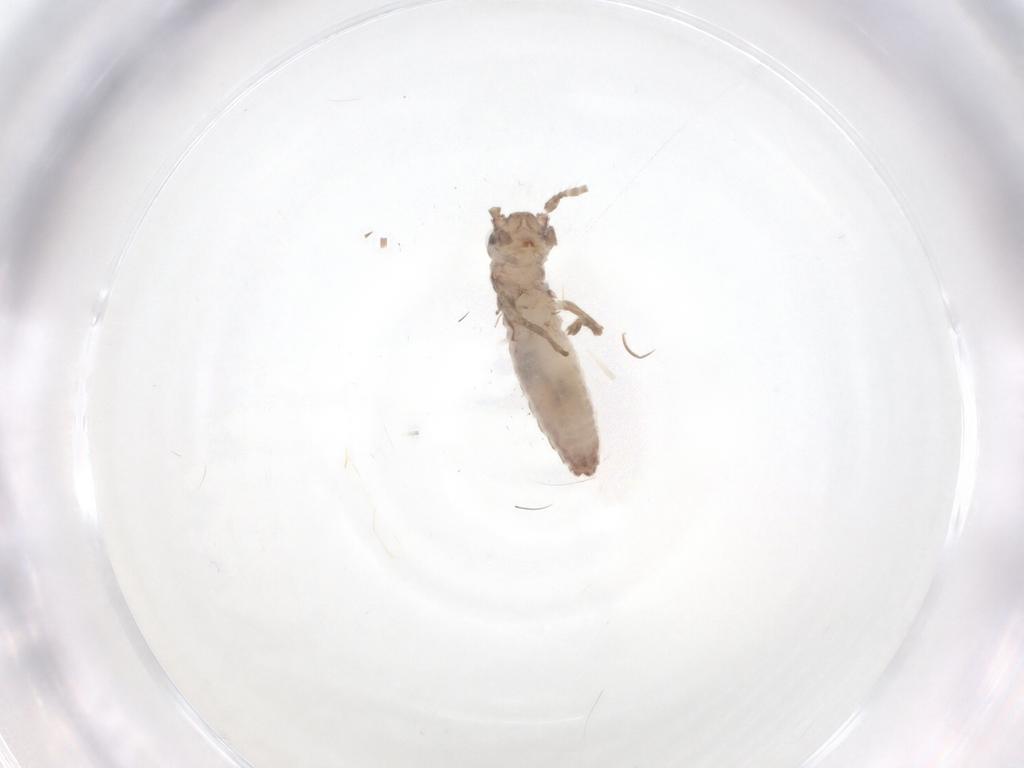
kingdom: Animalia
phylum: Arthropoda
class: Insecta
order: Orthoptera
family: Mogoplistidae
